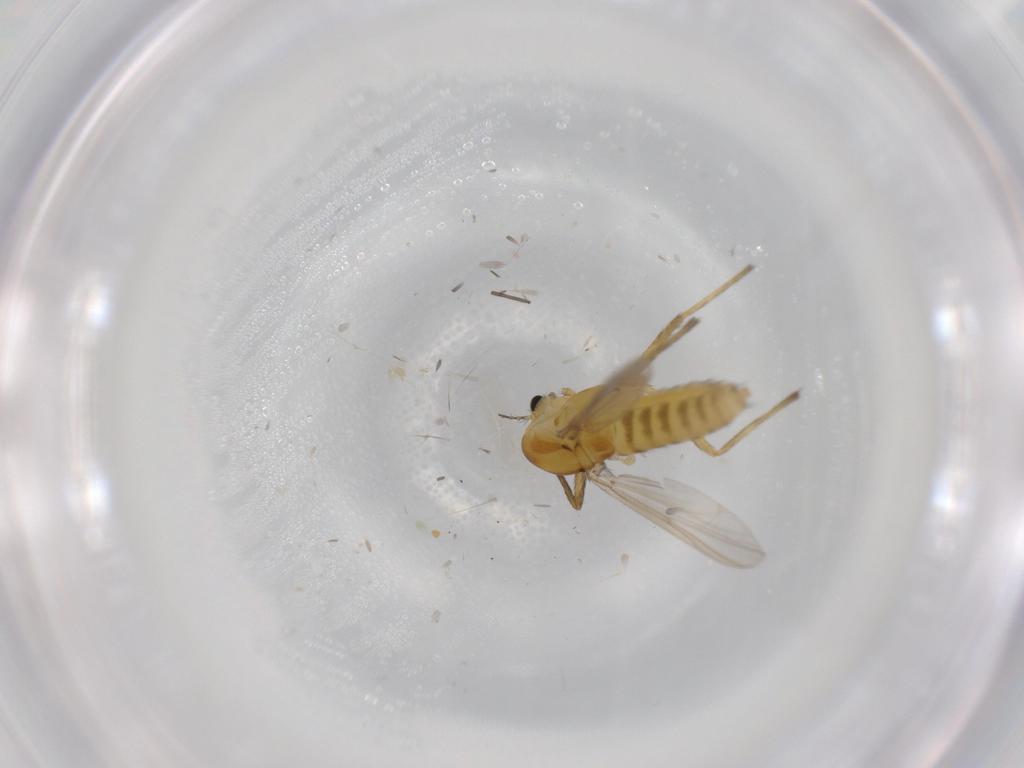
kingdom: Animalia
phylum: Arthropoda
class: Insecta
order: Diptera
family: Chironomidae
